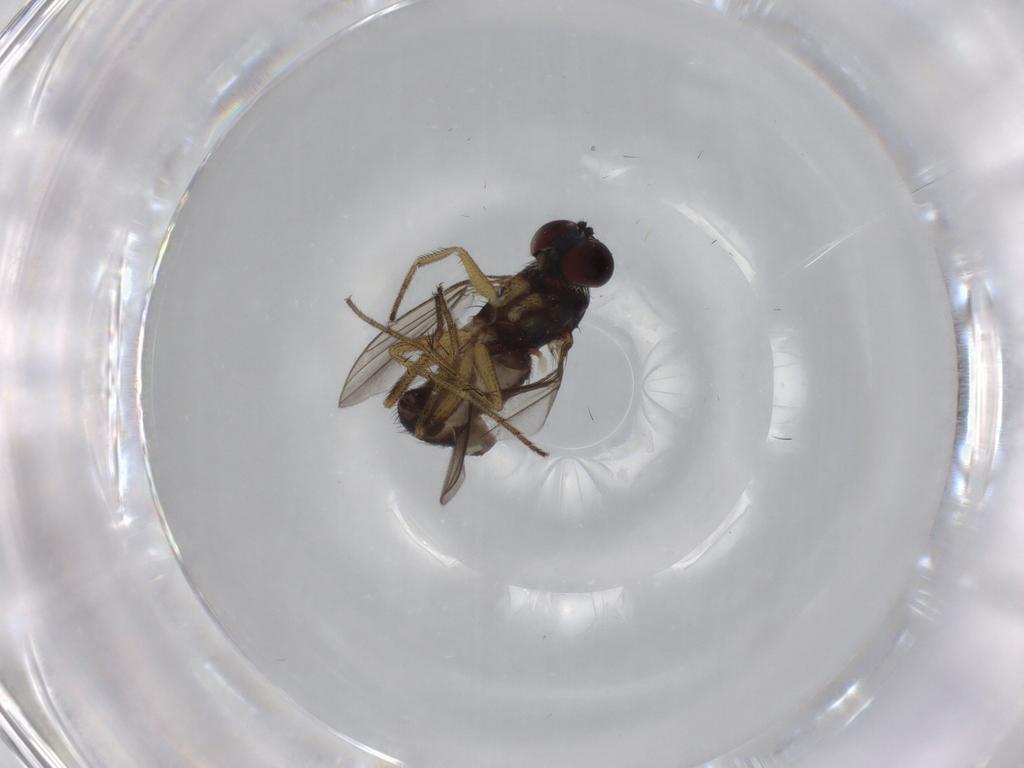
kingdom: Animalia
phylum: Arthropoda
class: Insecta
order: Diptera
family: Dolichopodidae
